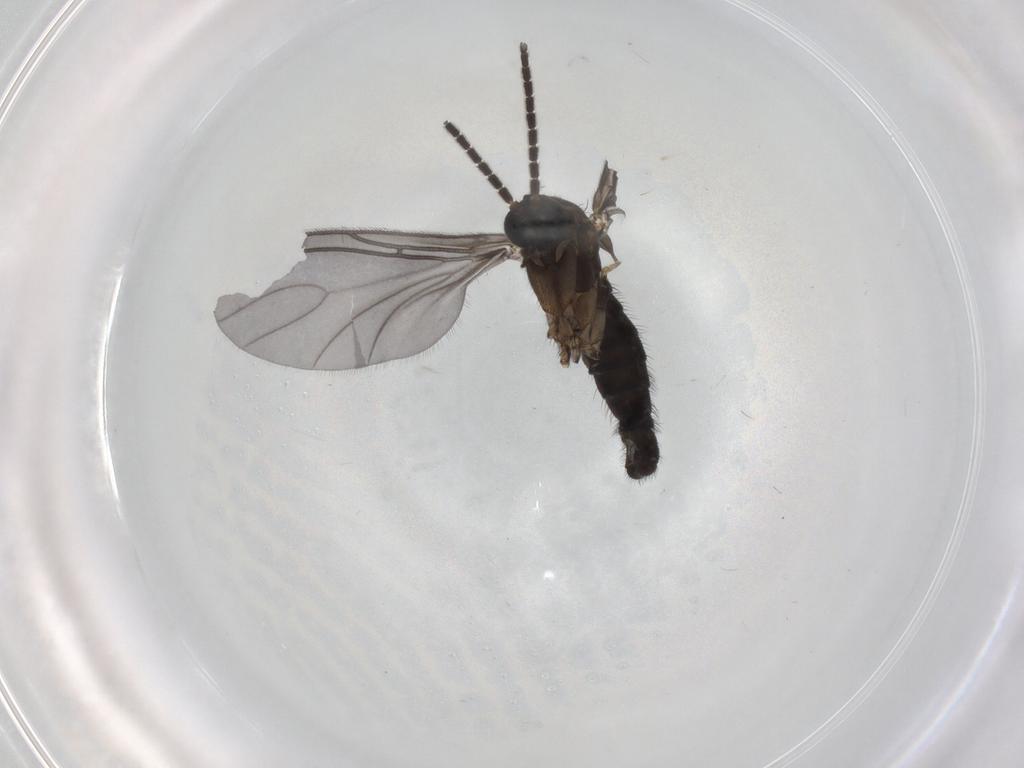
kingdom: Animalia
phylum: Arthropoda
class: Insecta
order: Diptera
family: Sciaridae
